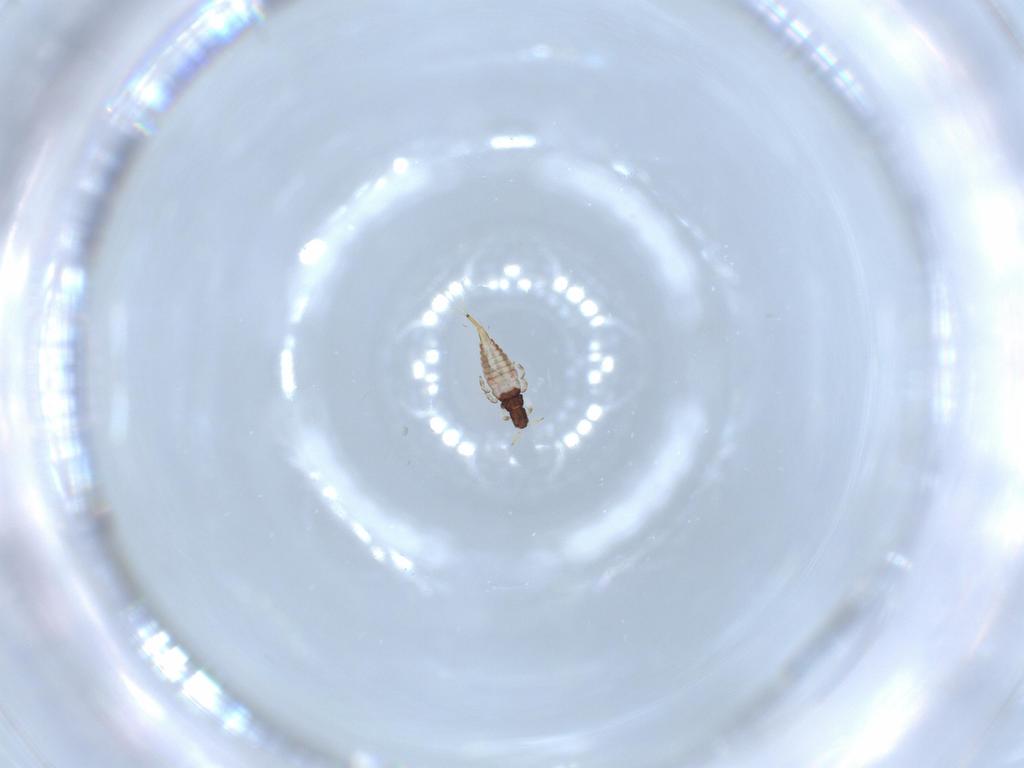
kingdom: Animalia
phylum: Arthropoda
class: Insecta
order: Thysanoptera
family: Phlaeothripidae
